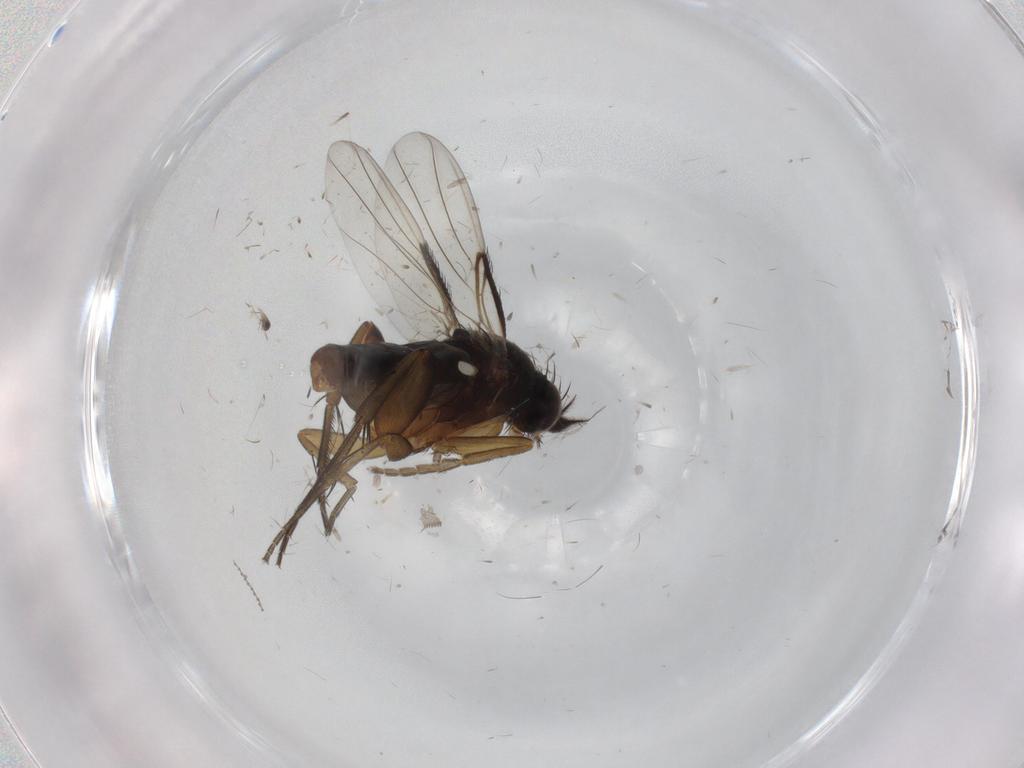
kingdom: Animalia
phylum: Arthropoda
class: Insecta
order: Diptera
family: Phoridae
